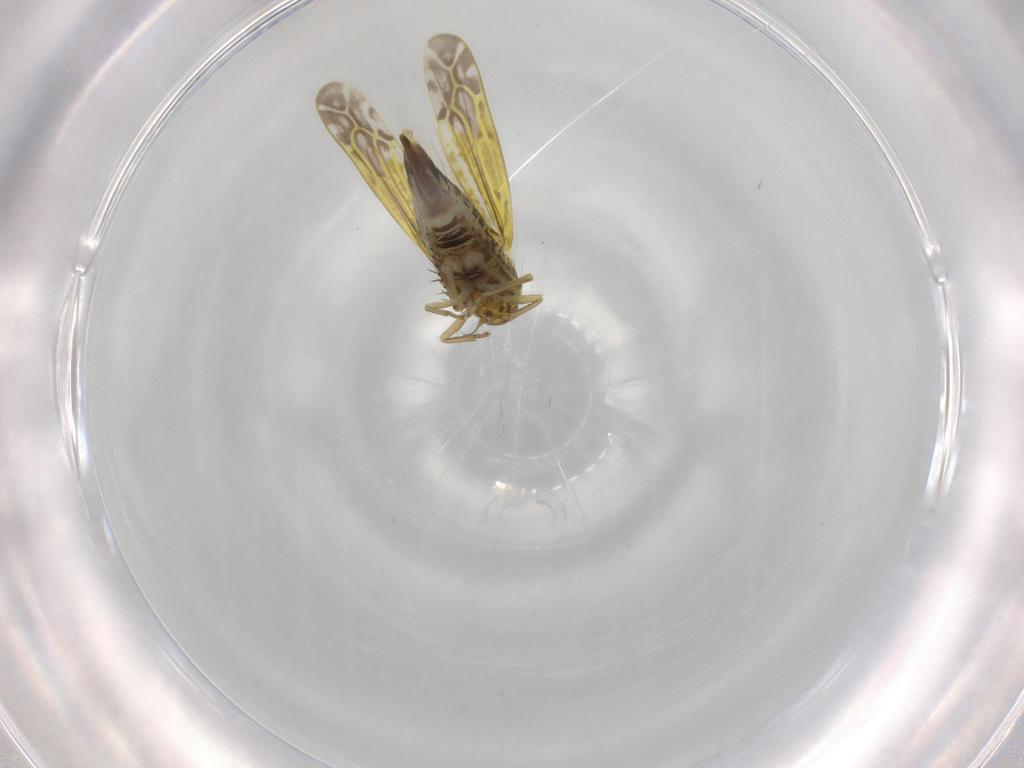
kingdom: Animalia
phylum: Arthropoda
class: Insecta
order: Hemiptera
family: Cicadellidae
